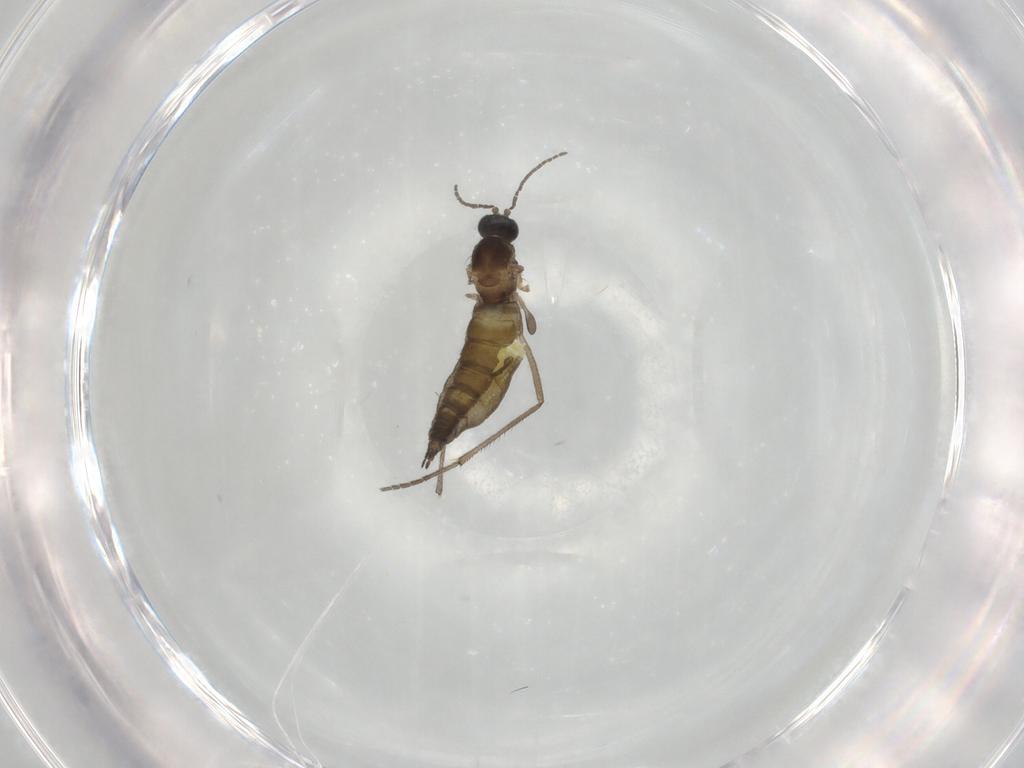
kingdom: Animalia
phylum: Arthropoda
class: Insecta
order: Diptera
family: Sciaridae
